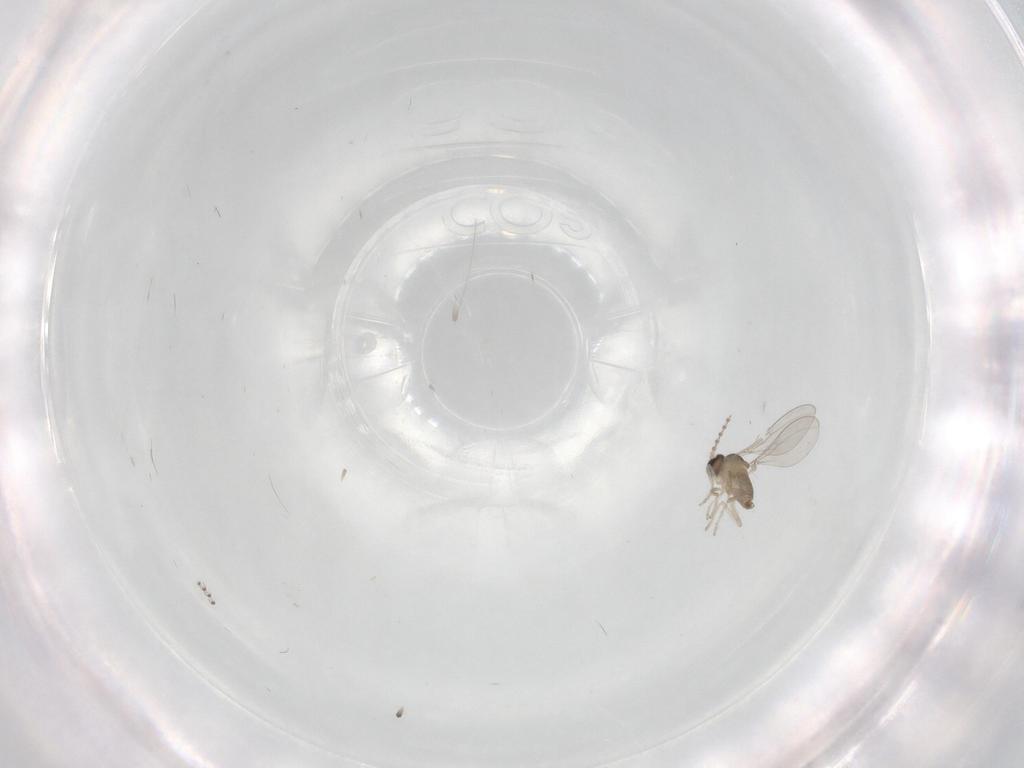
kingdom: Animalia
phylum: Arthropoda
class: Insecta
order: Diptera
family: Cecidomyiidae
